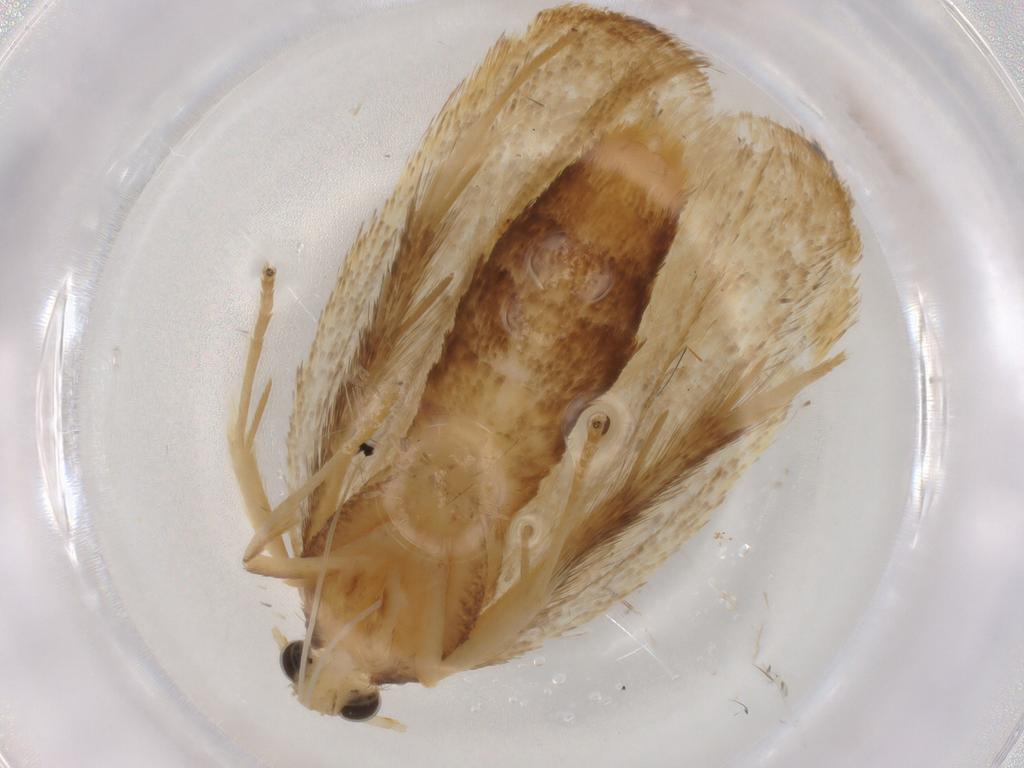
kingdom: Animalia
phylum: Arthropoda
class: Insecta
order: Lepidoptera
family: Lecithoceridae
